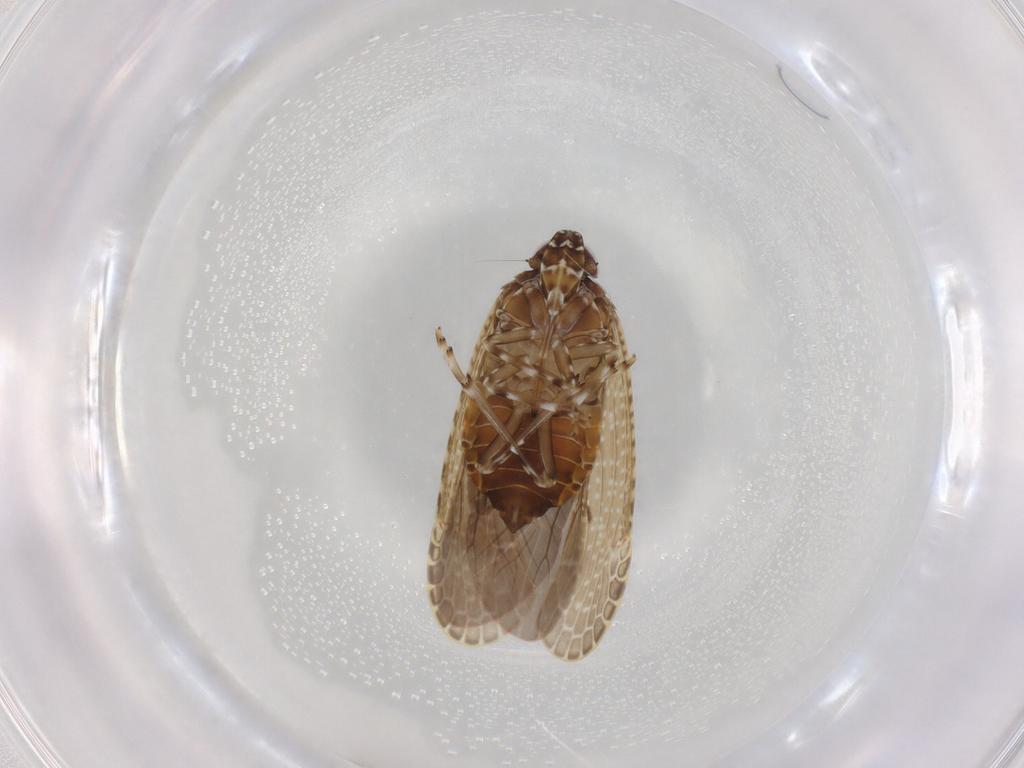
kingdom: Animalia
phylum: Arthropoda
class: Insecta
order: Hemiptera
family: Achilidae
